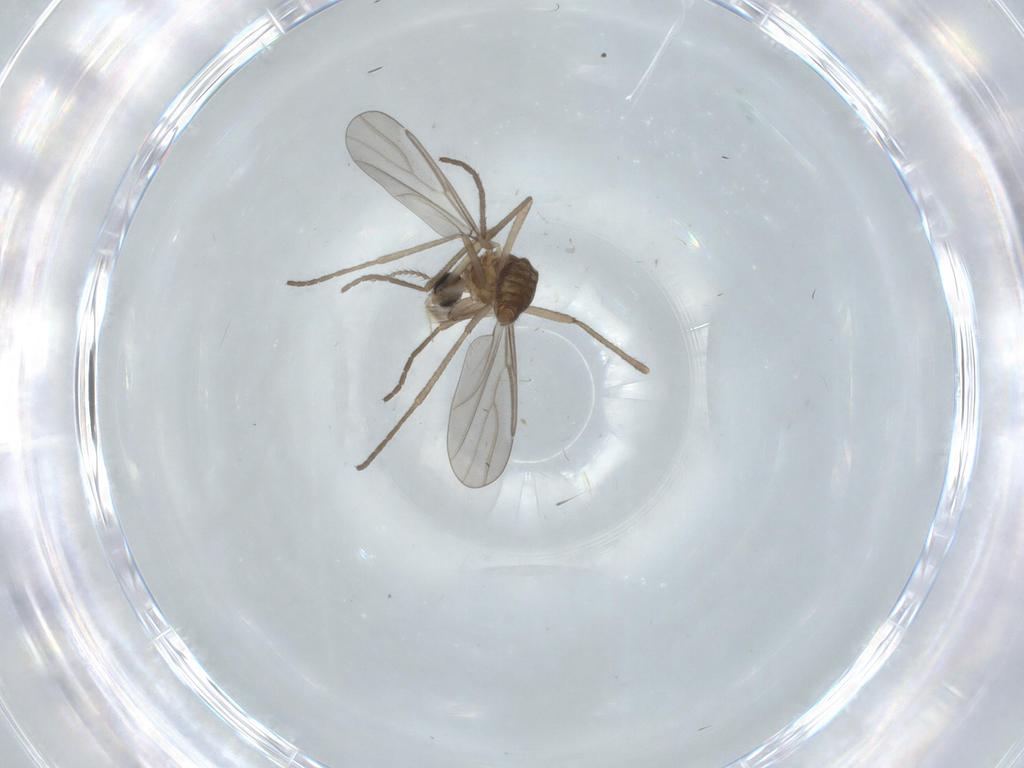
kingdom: Animalia
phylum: Arthropoda
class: Insecta
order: Diptera
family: Cecidomyiidae
